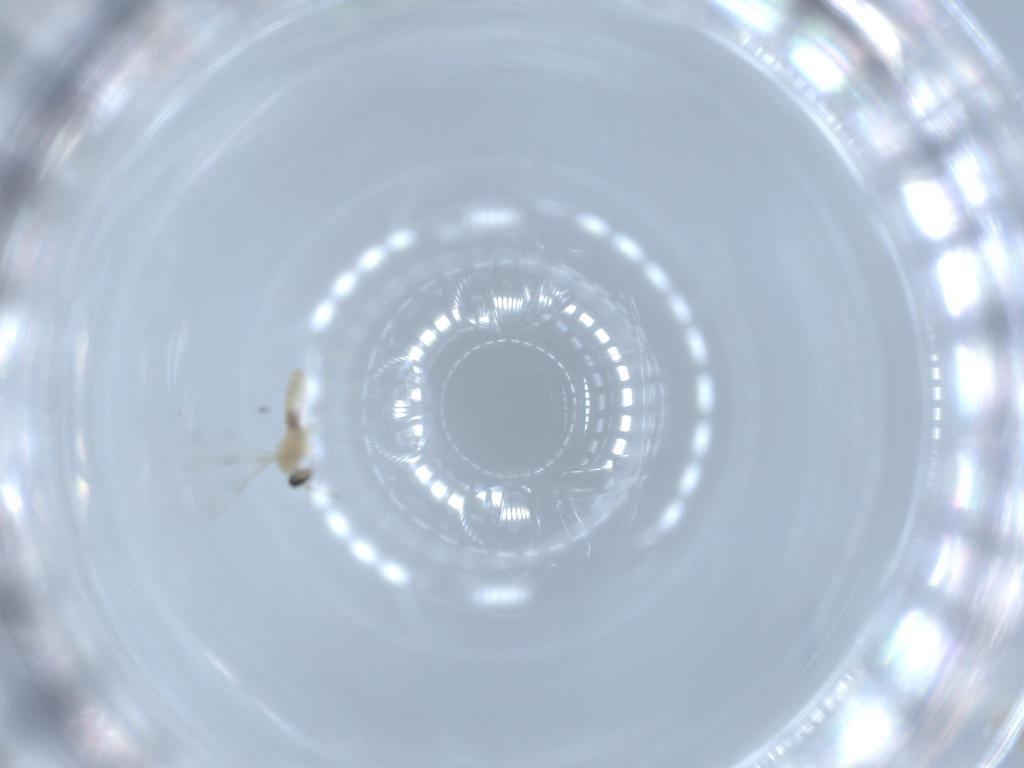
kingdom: Animalia
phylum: Arthropoda
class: Insecta
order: Diptera
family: Cecidomyiidae
